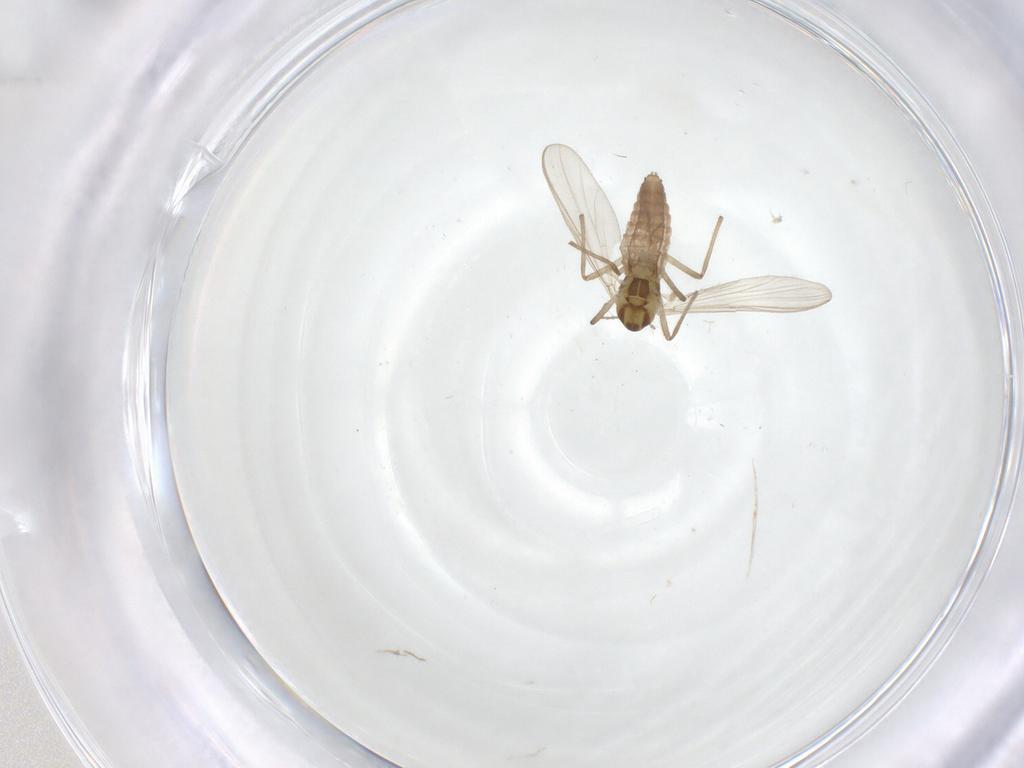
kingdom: Animalia
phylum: Arthropoda
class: Insecta
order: Diptera
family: Chironomidae
